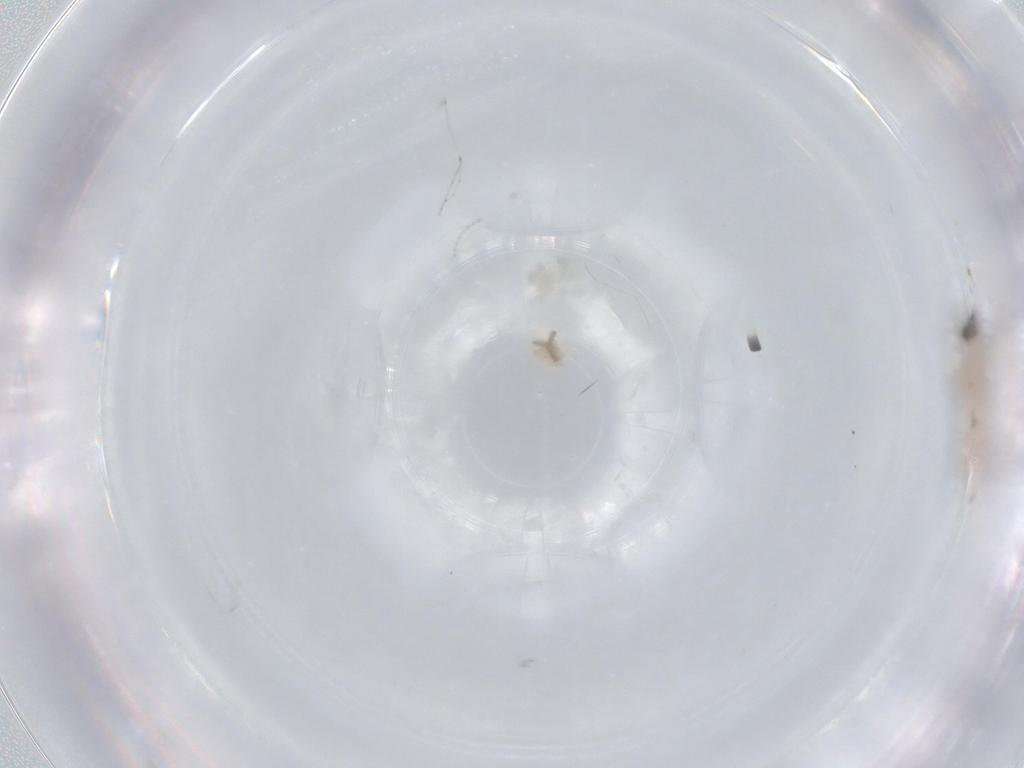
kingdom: Animalia
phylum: Arthropoda
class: Insecta
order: Diptera
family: Cecidomyiidae
